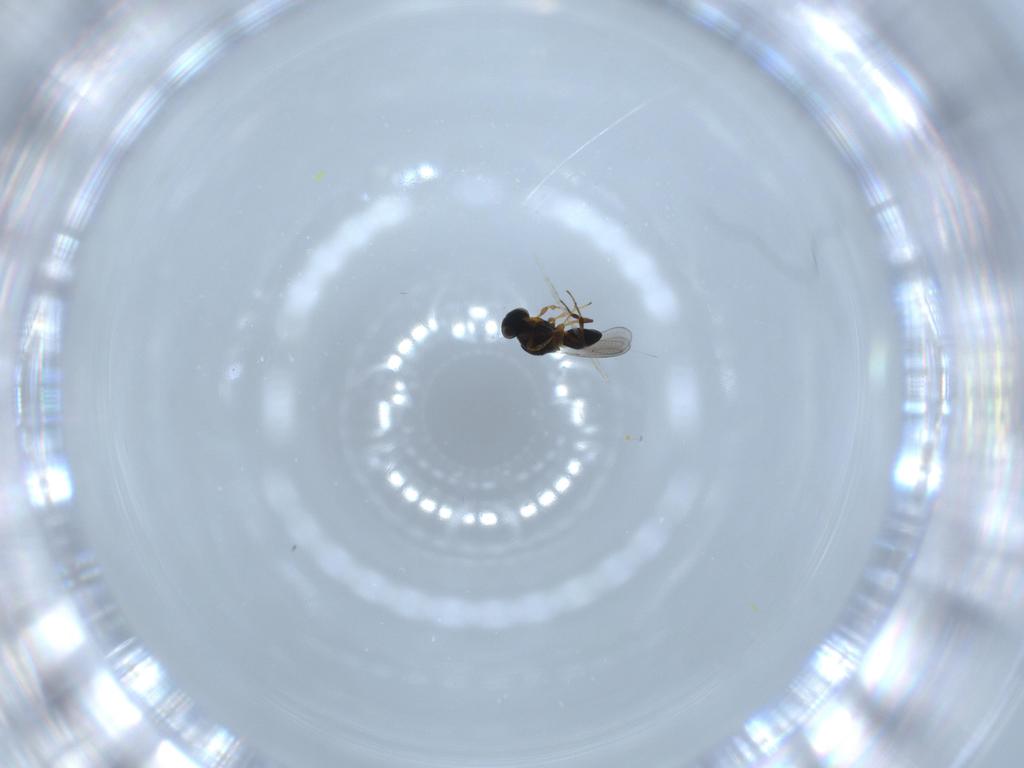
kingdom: Animalia
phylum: Arthropoda
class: Insecta
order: Hymenoptera
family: Platygastridae
